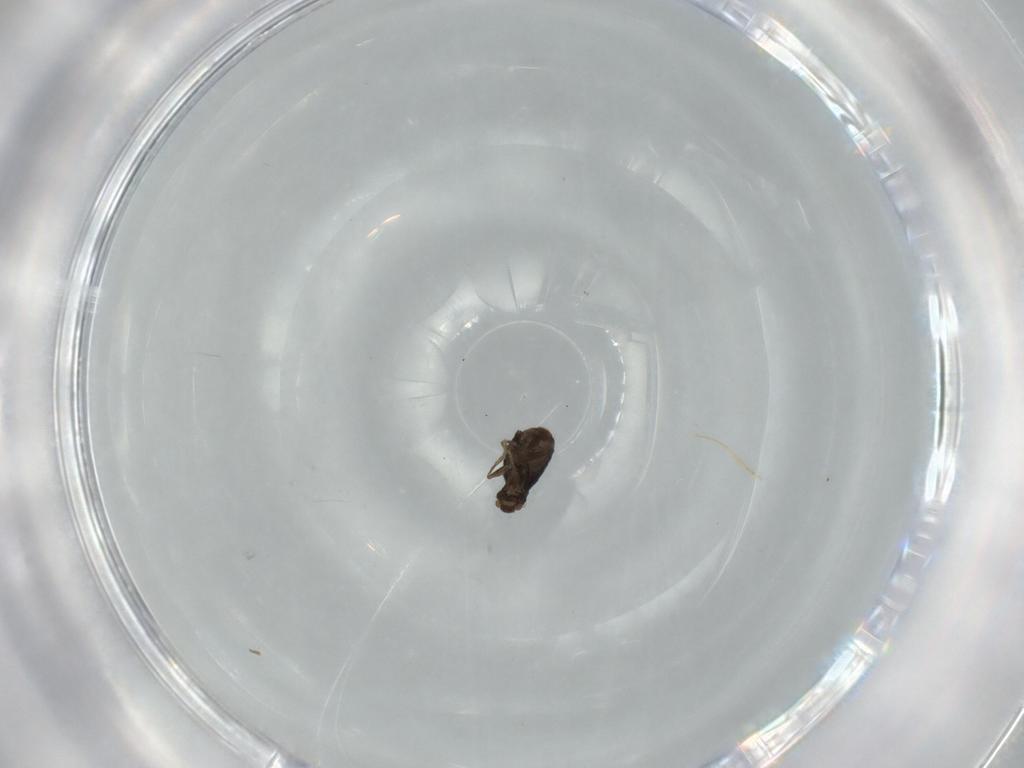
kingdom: Animalia
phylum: Arthropoda
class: Insecta
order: Diptera
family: Phoridae
